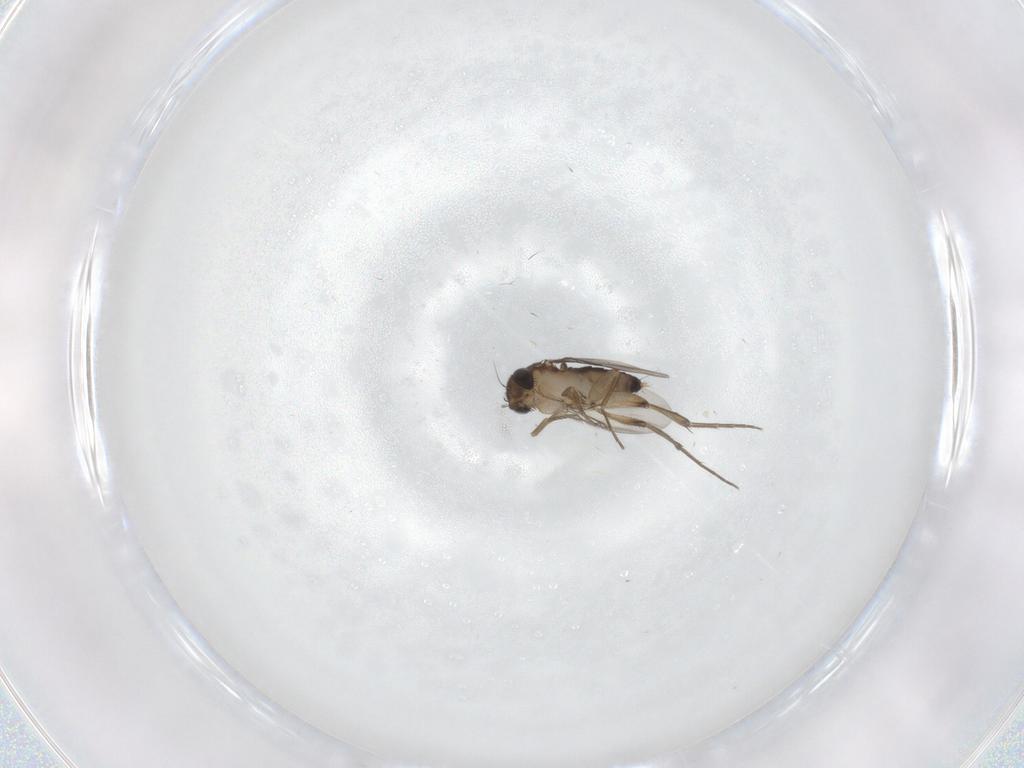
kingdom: Animalia
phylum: Arthropoda
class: Insecta
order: Diptera
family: Phoridae
